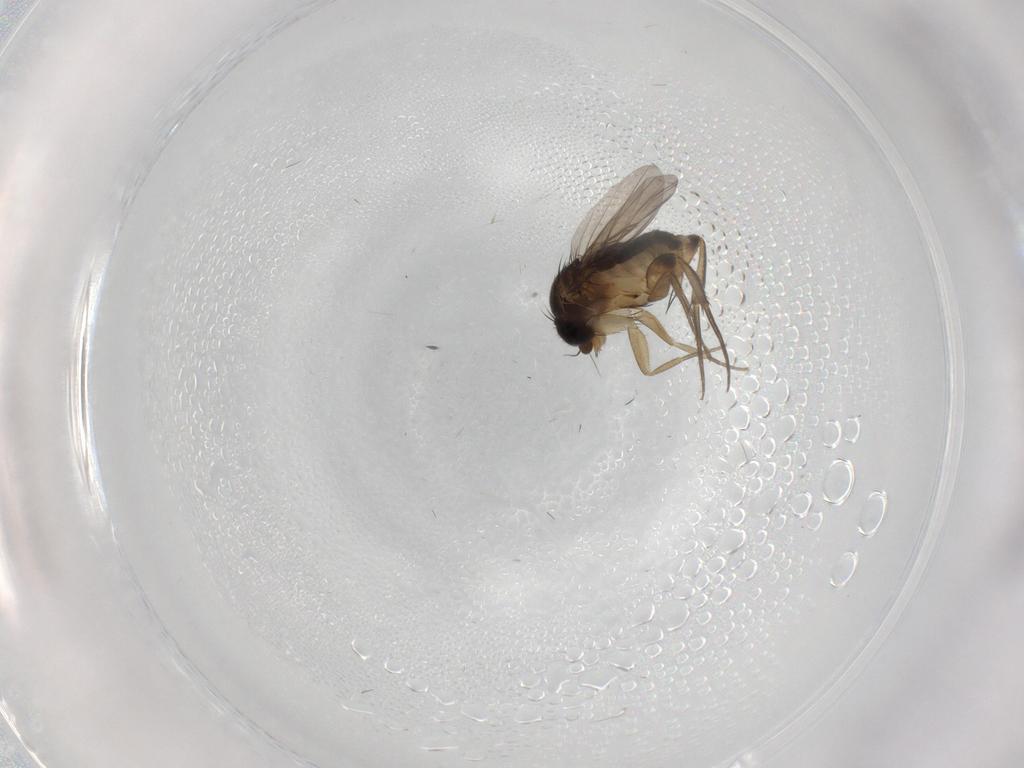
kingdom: Animalia
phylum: Arthropoda
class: Insecta
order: Diptera
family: Phoridae
